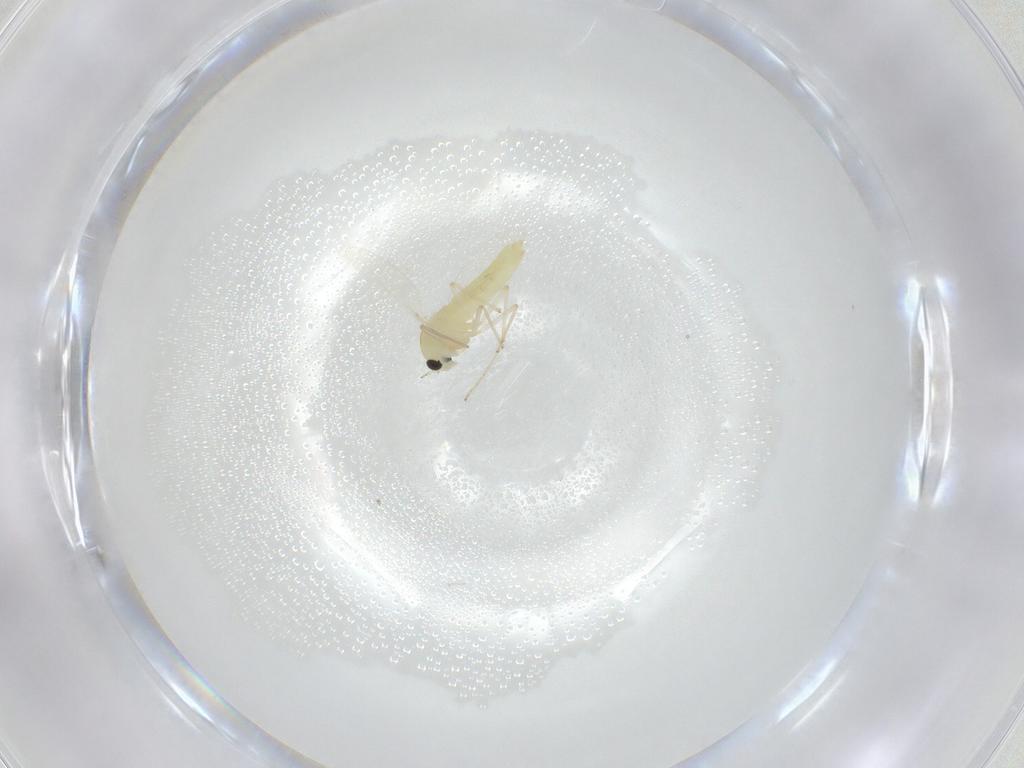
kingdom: Animalia
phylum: Arthropoda
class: Insecta
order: Diptera
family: Chironomidae
